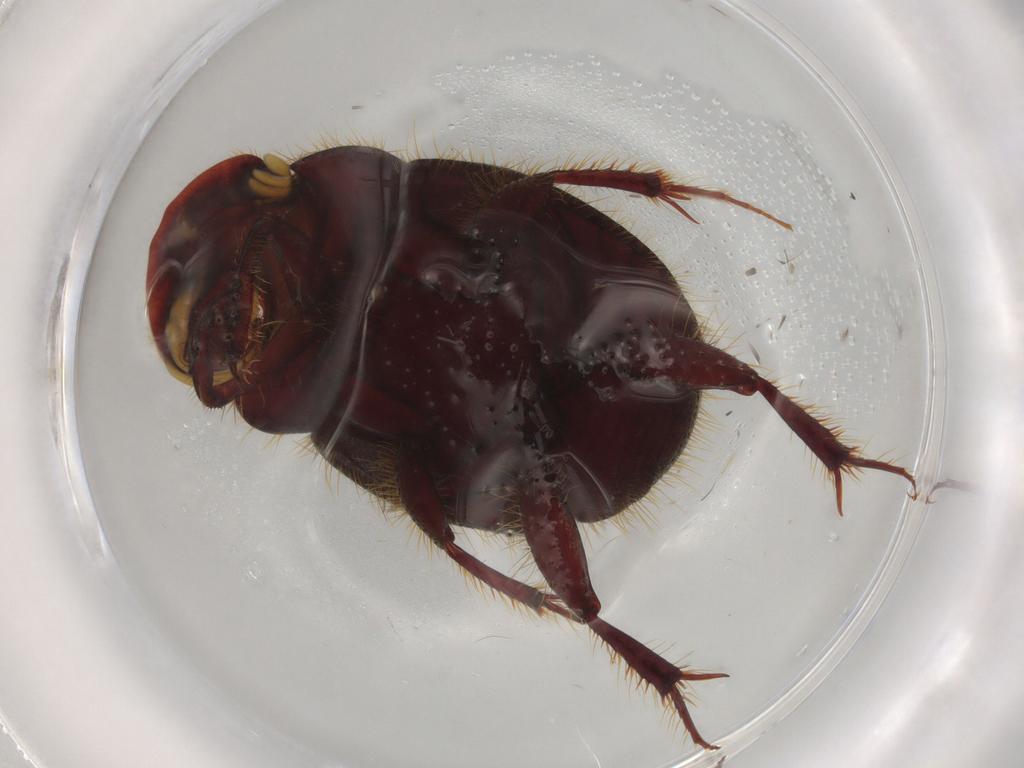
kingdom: Animalia
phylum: Arthropoda
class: Insecta
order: Coleoptera
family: Scarabaeidae
